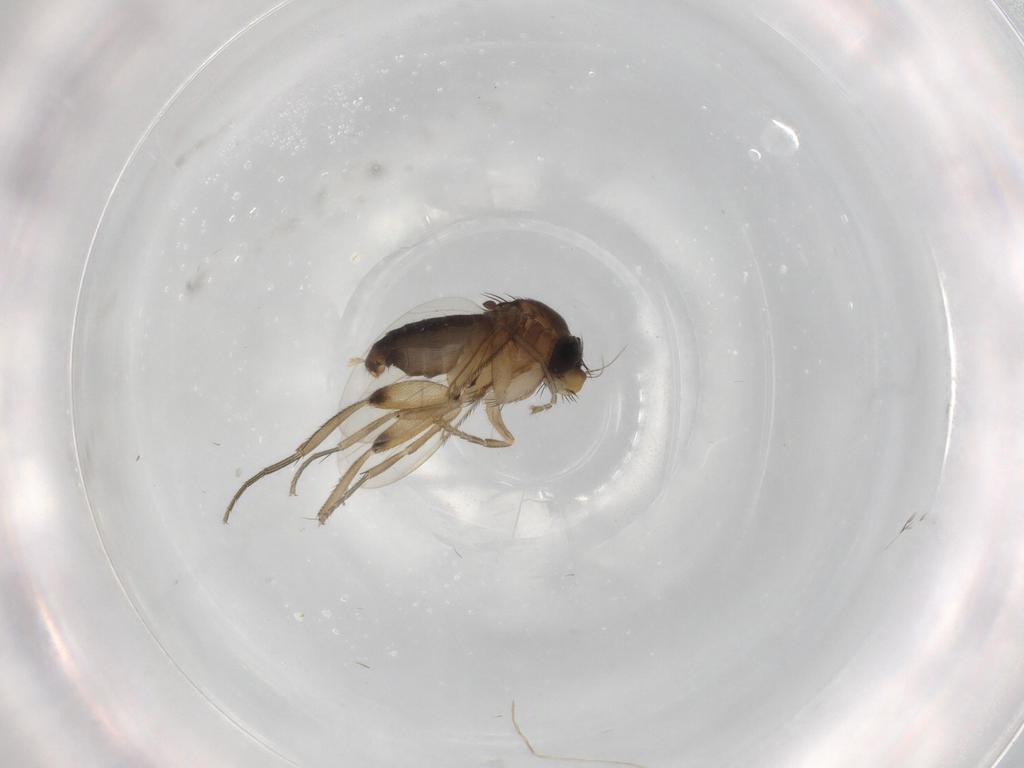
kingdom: Animalia
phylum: Arthropoda
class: Insecta
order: Diptera
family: Phoridae
